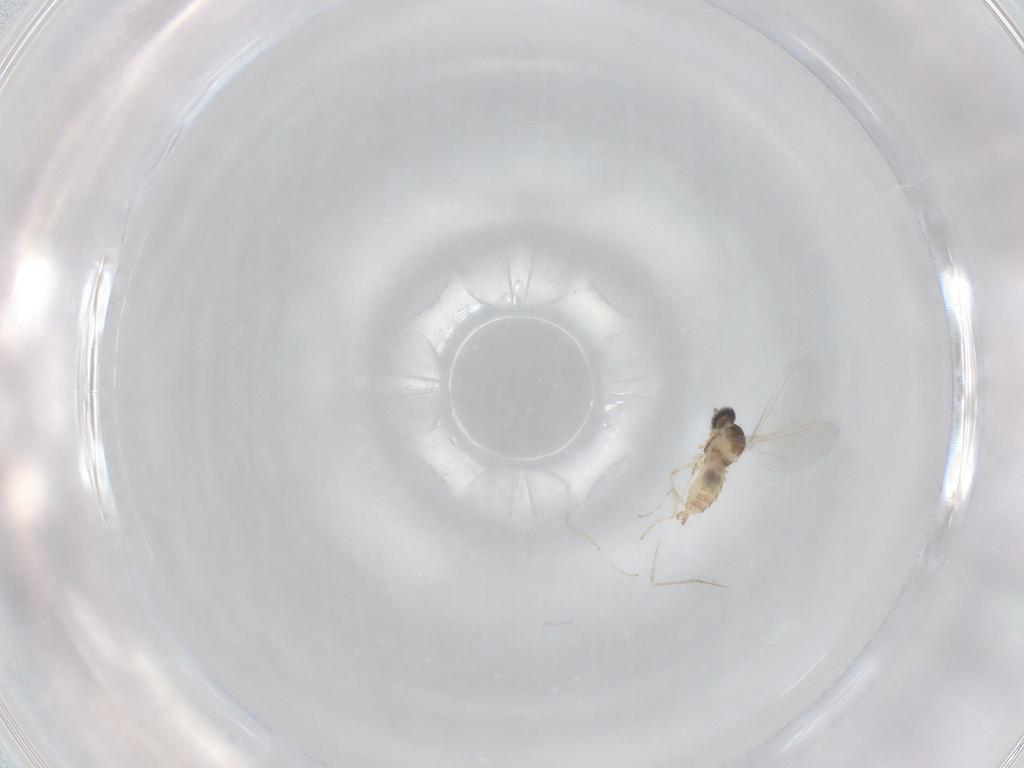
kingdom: Animalia
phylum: Arthropoda
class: Insecta
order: Diptera
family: Cecidomyiidae
